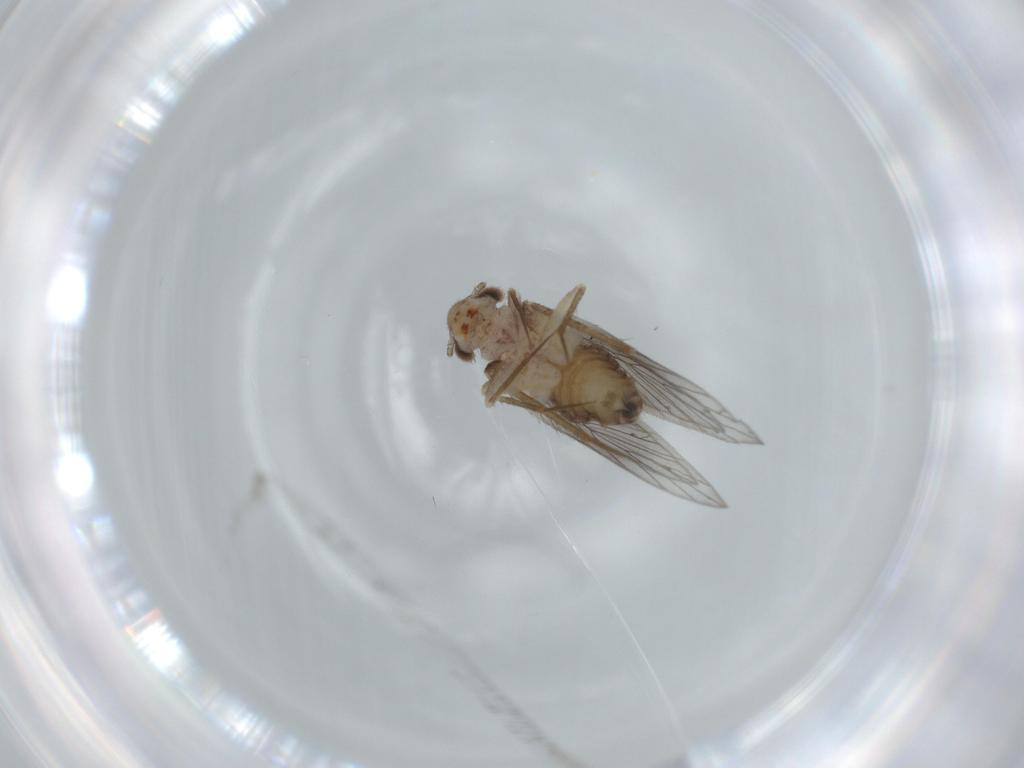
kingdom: Animalia
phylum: Arthropoda
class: Insecta
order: Psocodea
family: Lepidopsocidae
